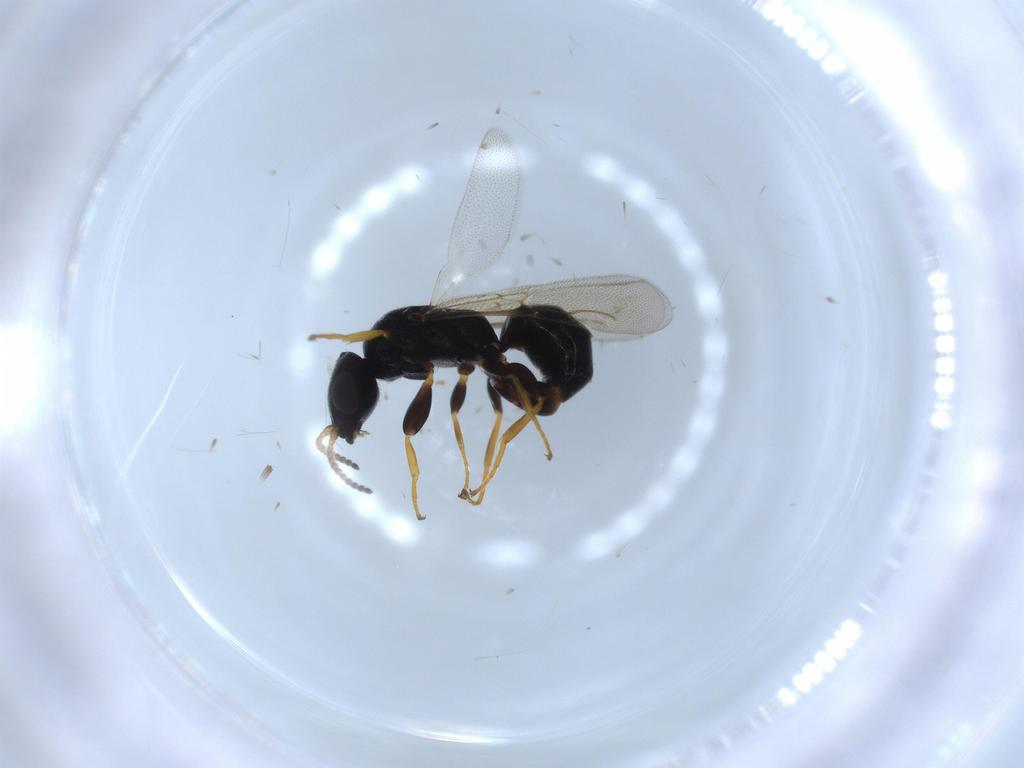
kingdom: Animalia
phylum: Arthropoda
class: Insecta
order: Hymenoptera
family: Bethylidae
